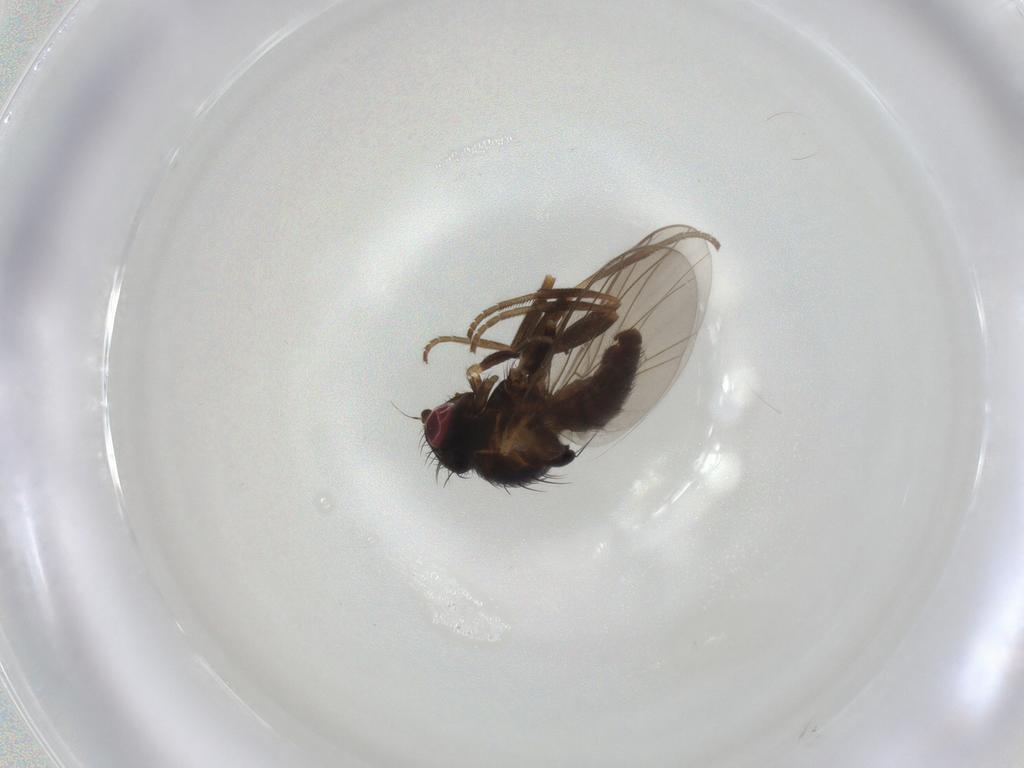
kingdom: Animalia
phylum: Arthropoda
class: Insecta
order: Diptera
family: Agromyzidae
